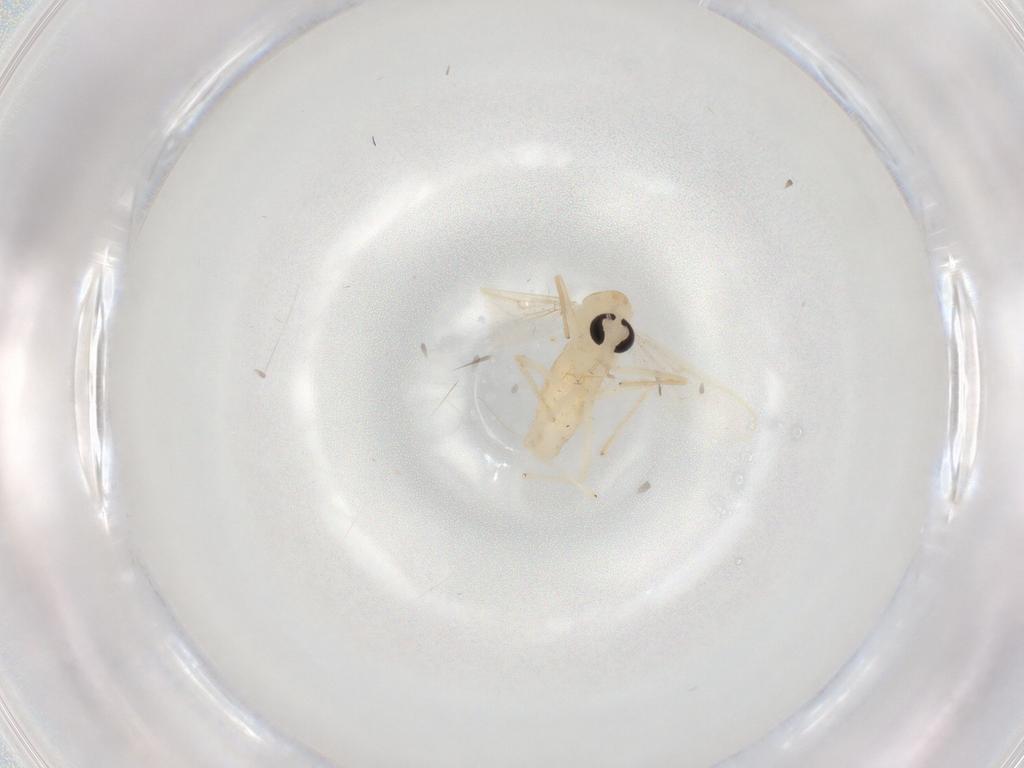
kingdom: Animalia
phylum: Arthropoda
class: Insecta
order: Diptera
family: Chironomidae
